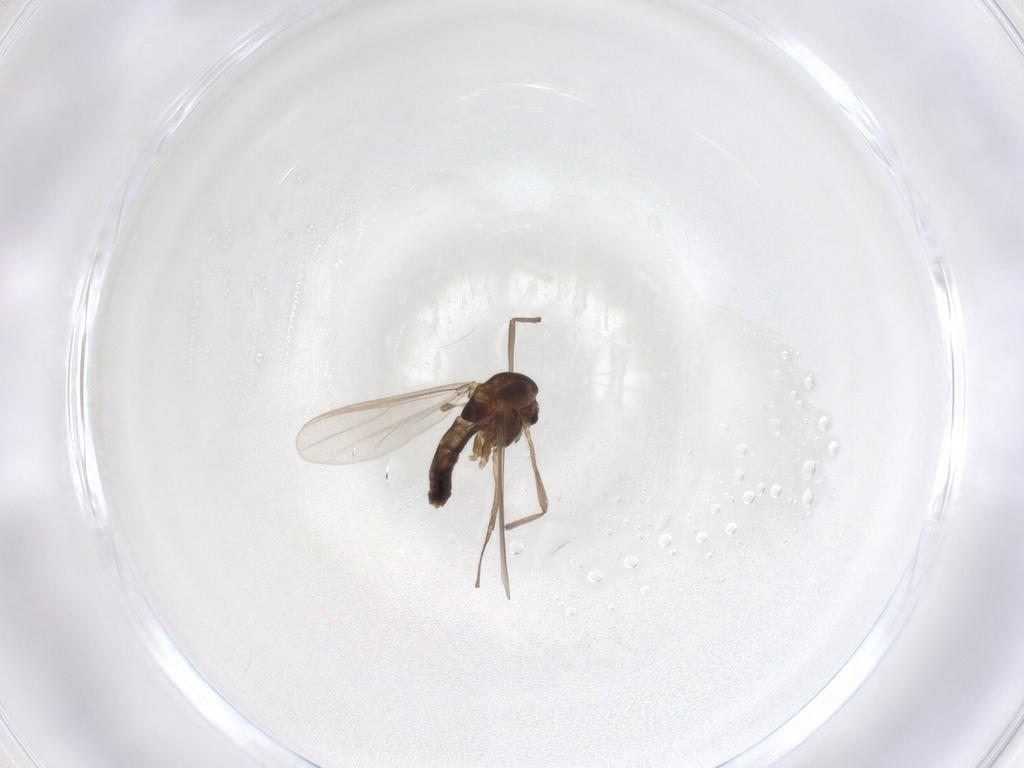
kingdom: Animalia
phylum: Arthropoda
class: Insecta
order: Diptera
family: Chironomidae
